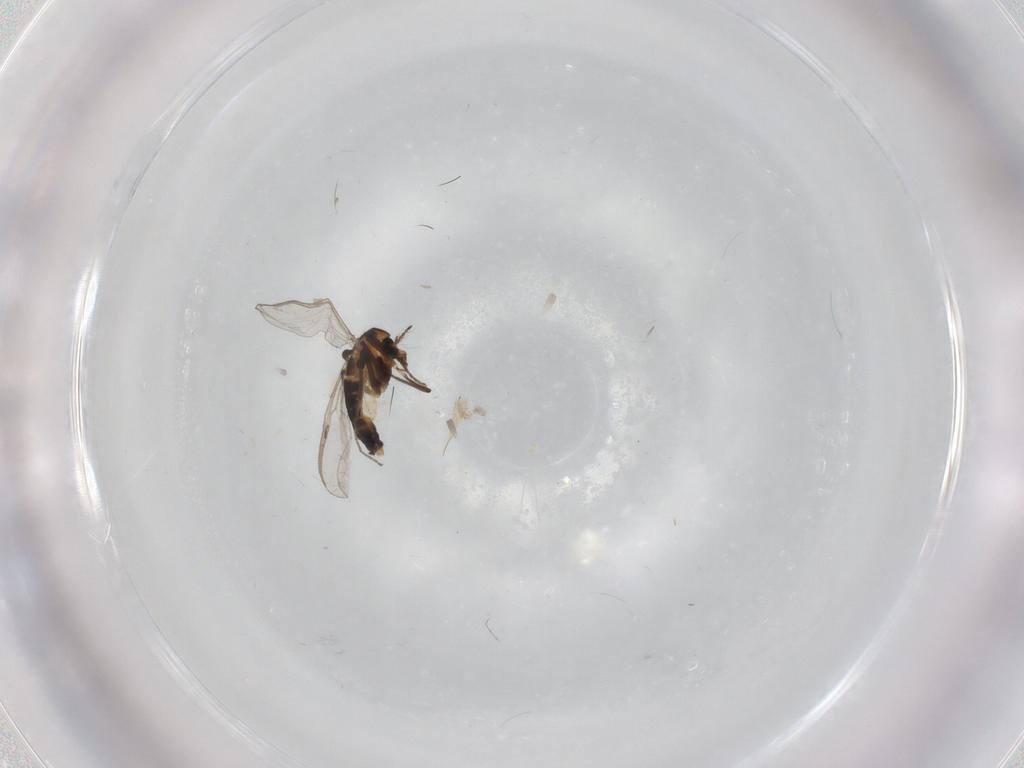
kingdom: Animalia
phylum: Arthropoda
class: Insecta
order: Diptera
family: Chironomidae
